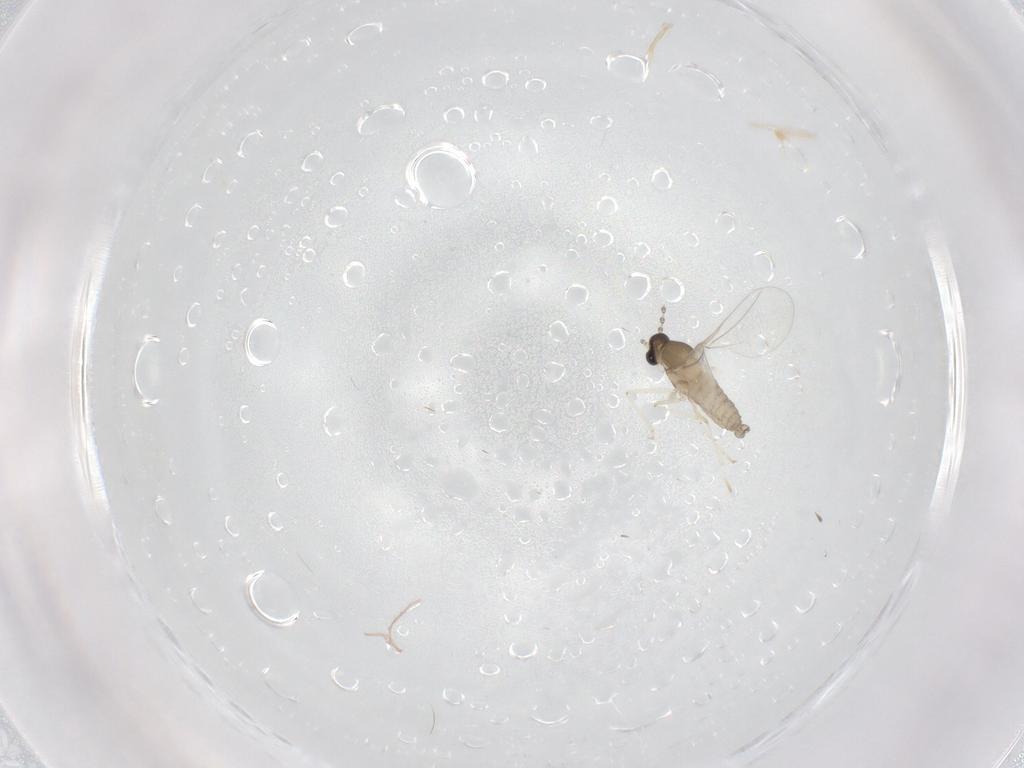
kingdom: Animalia
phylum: Arthropoda
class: Insecta
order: Diptera
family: Cecidomyiidae
